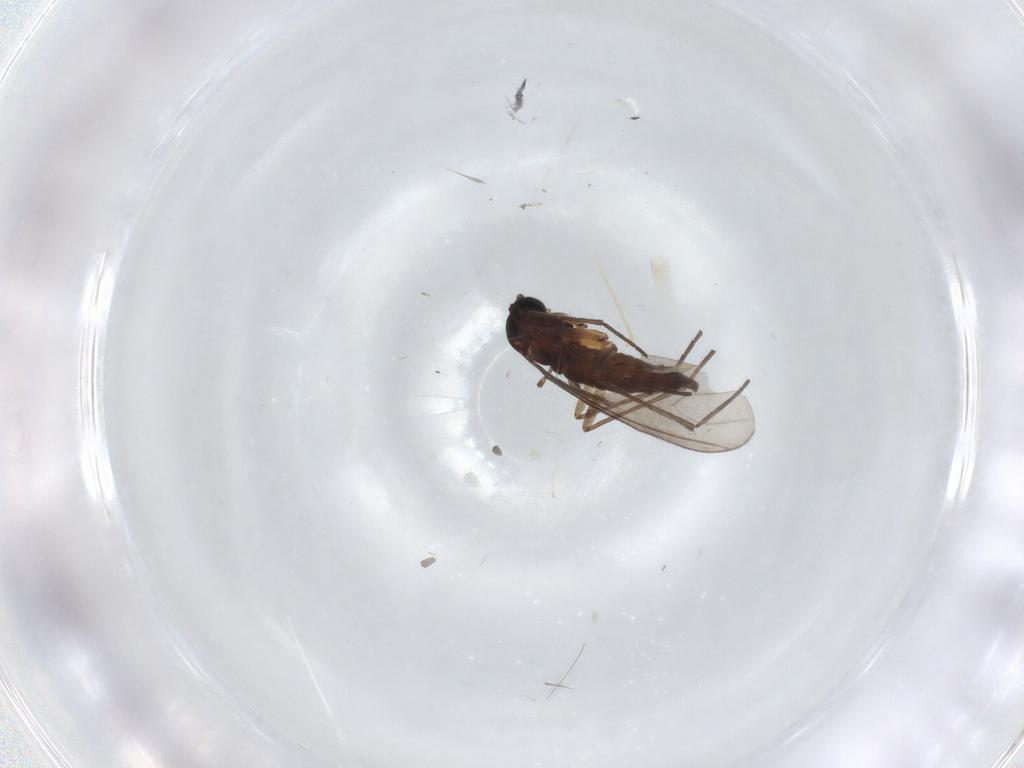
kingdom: Animalia
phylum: Arthropoda
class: Insecta
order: Diptera
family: Cecidomyiidae
